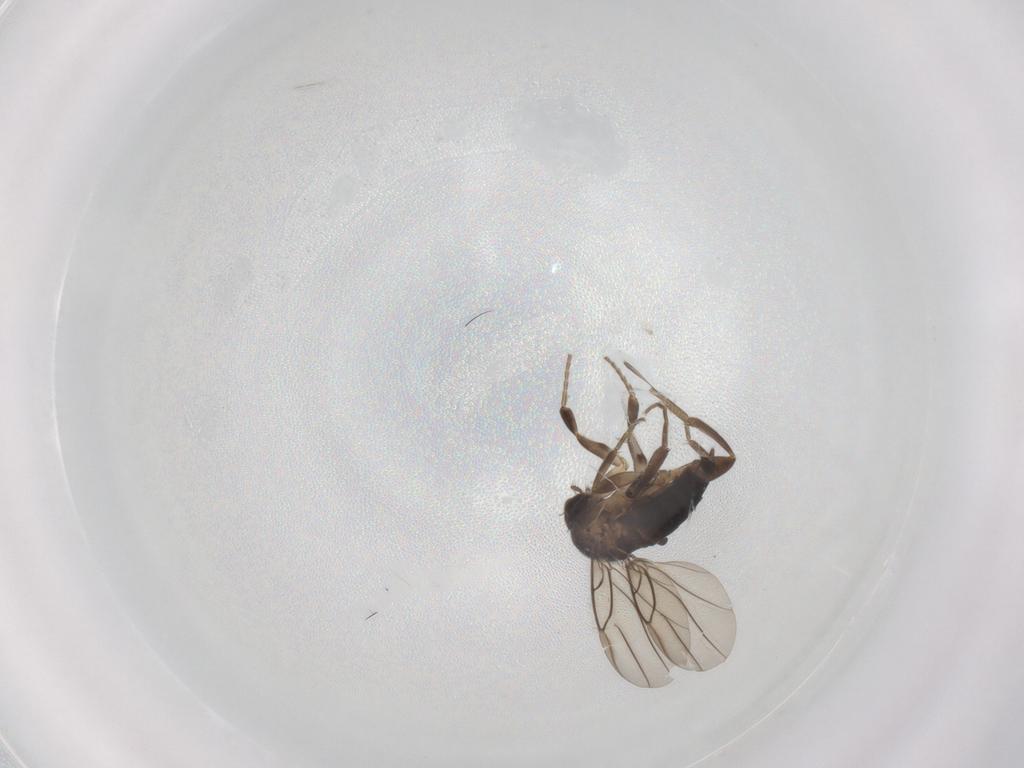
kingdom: Animalia
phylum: Arthropoda
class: Insecta
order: Diptera
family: Phoridae
